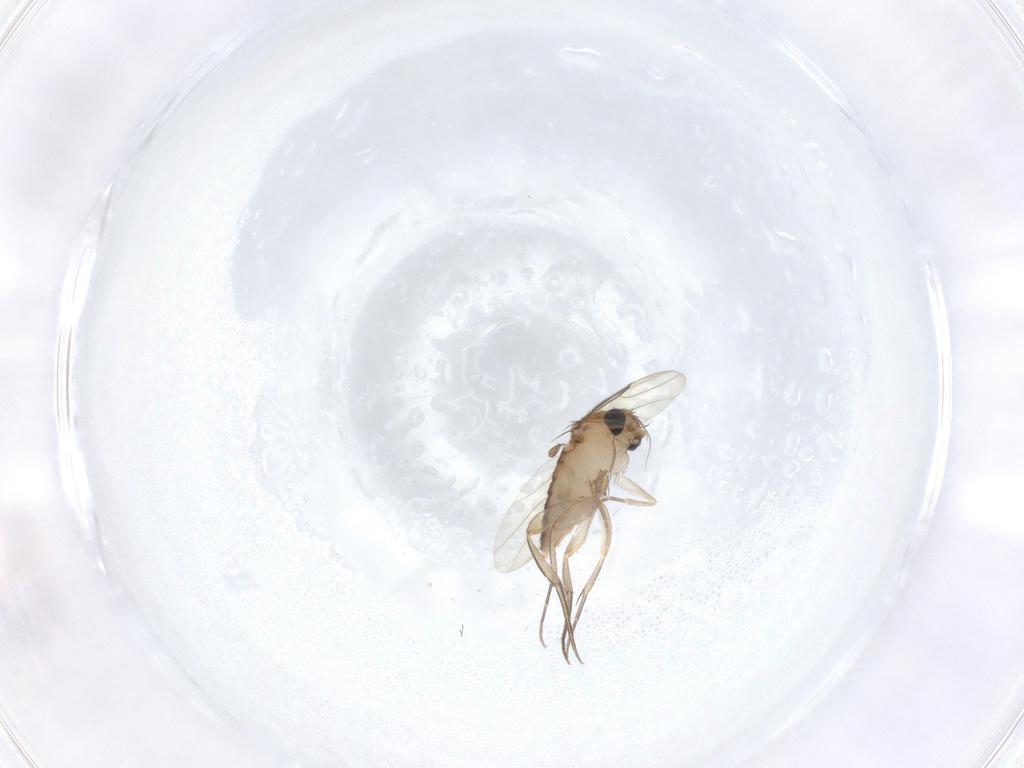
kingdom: Animalia
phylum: Arthropoda
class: Insecta
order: Diptera
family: Phoridae
